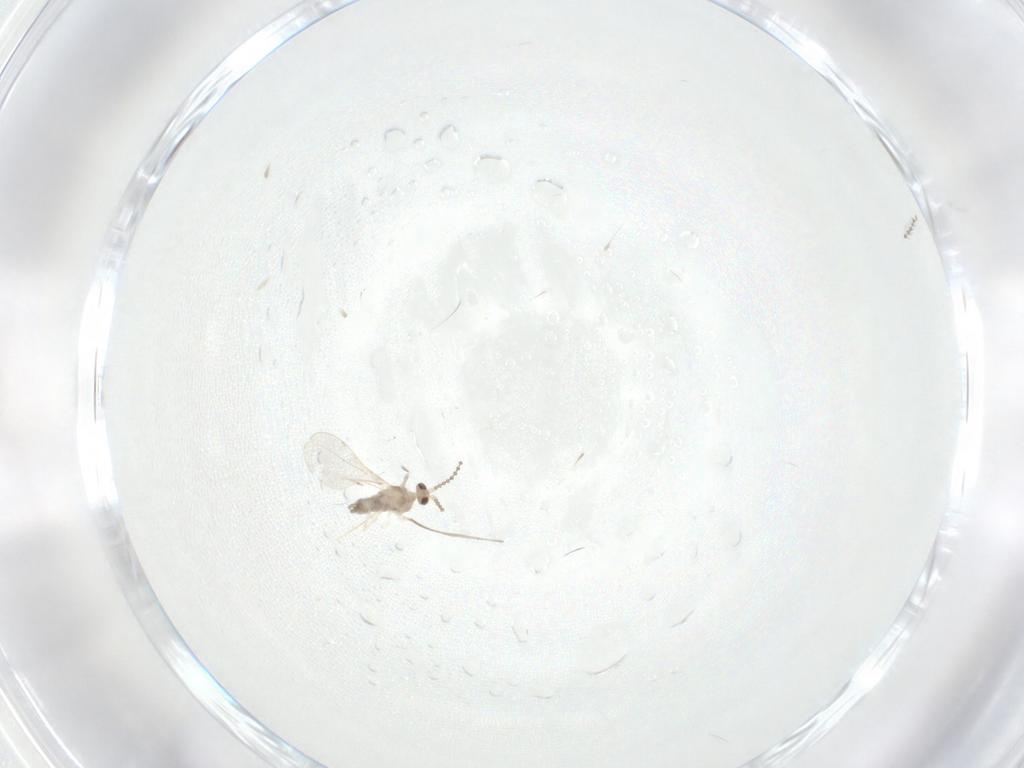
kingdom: Animalia
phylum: Arthropoda
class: Insecta
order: Diptera
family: Cecidomyiidae
